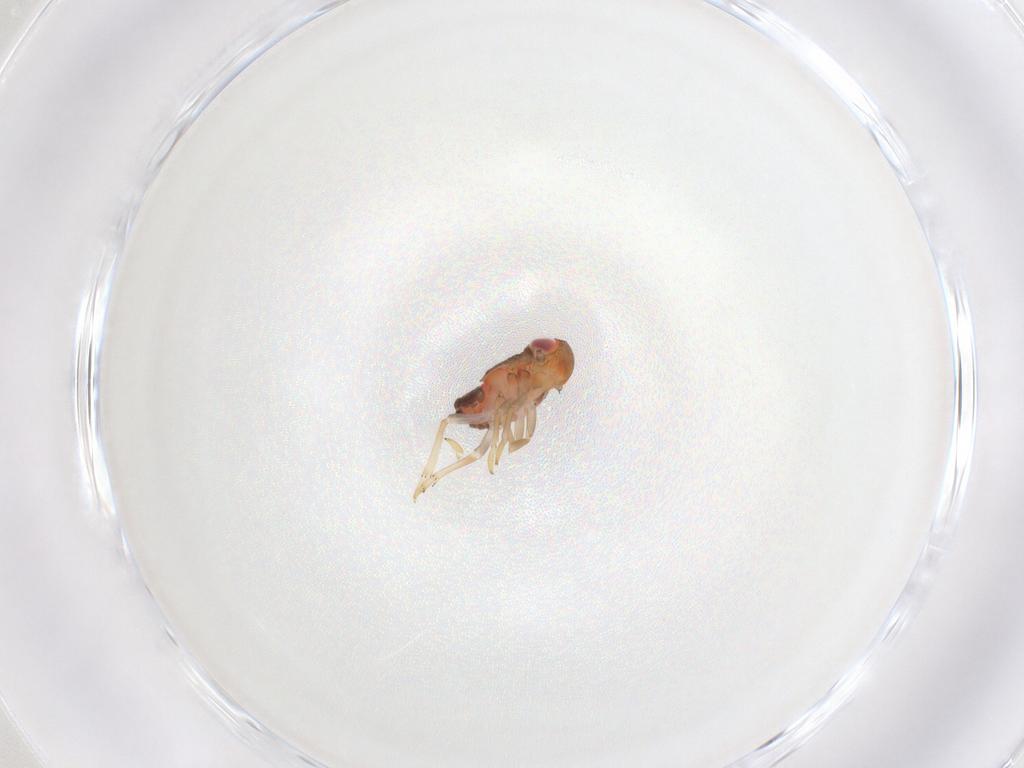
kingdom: Animalia
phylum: Arthropoda
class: Insecta
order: Hemiptera
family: Issidae
